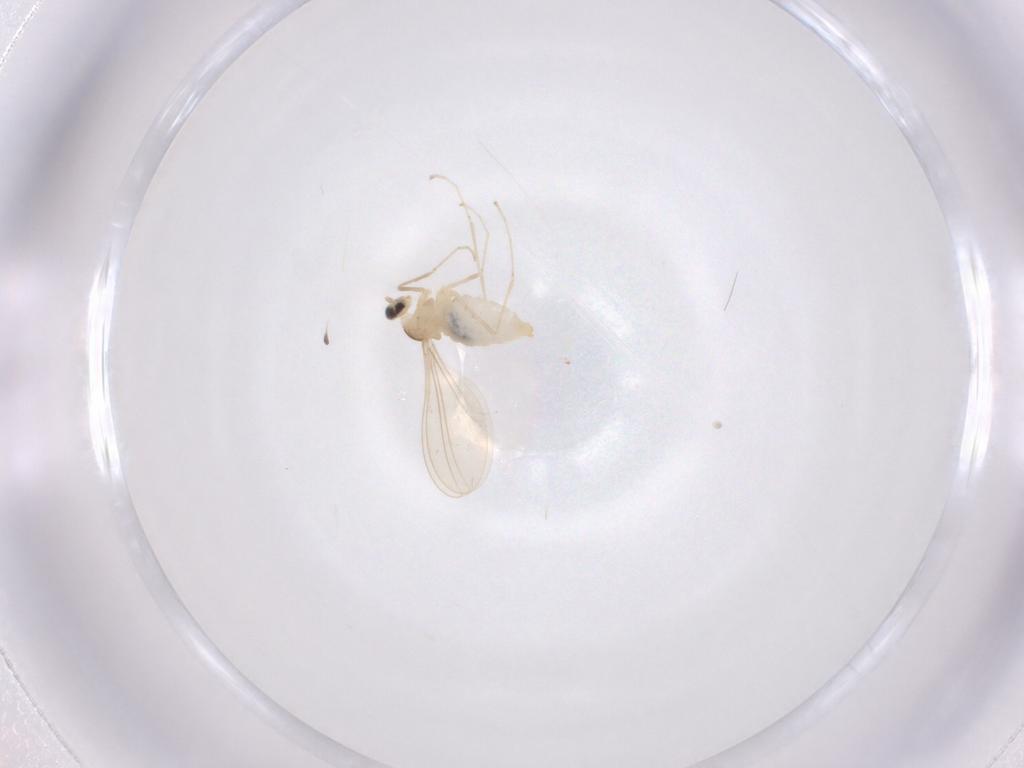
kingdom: Animalia
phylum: Arthropoda
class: Insecta
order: Diptera
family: Cecidomyiidae
